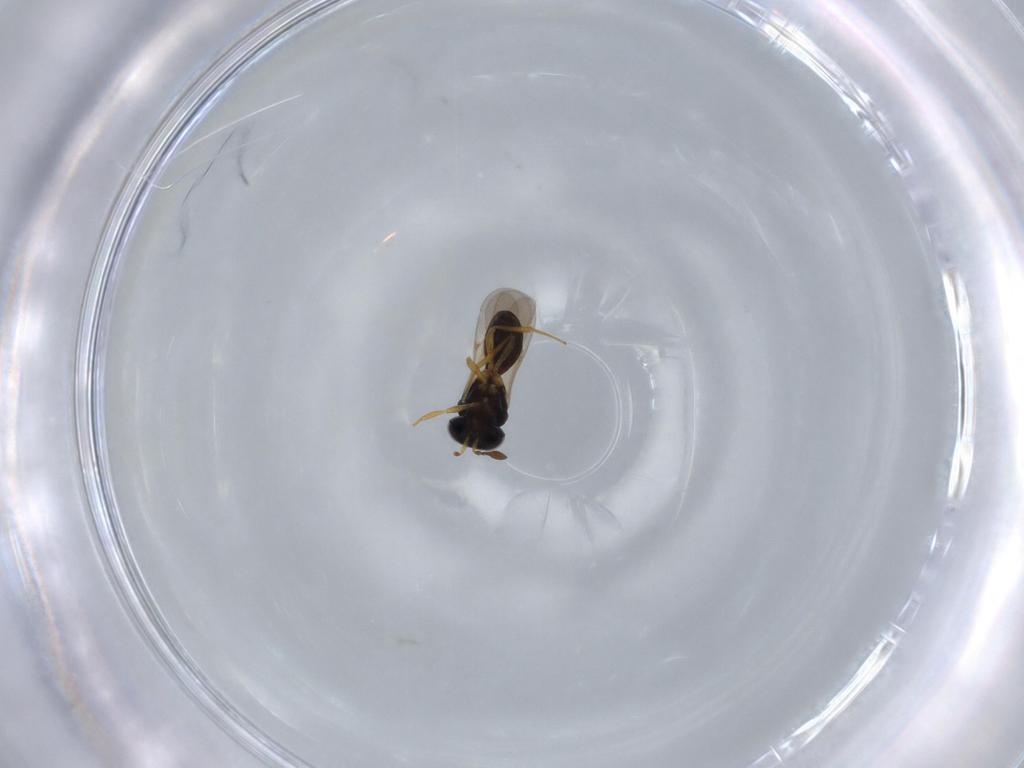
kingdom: Animalia
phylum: Arthropoda
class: Insecta
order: Hymenoptera
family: Scelionidae
